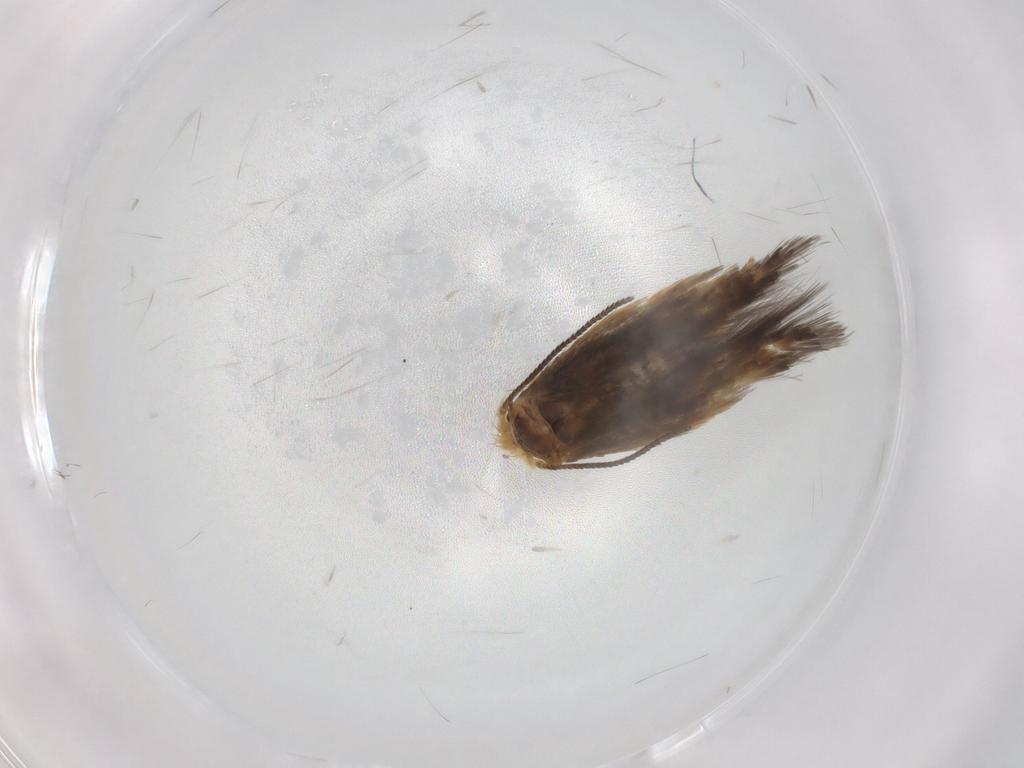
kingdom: Animalia
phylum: Arthropoda
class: Insecta
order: Lepidoptera
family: Nepticulidae
